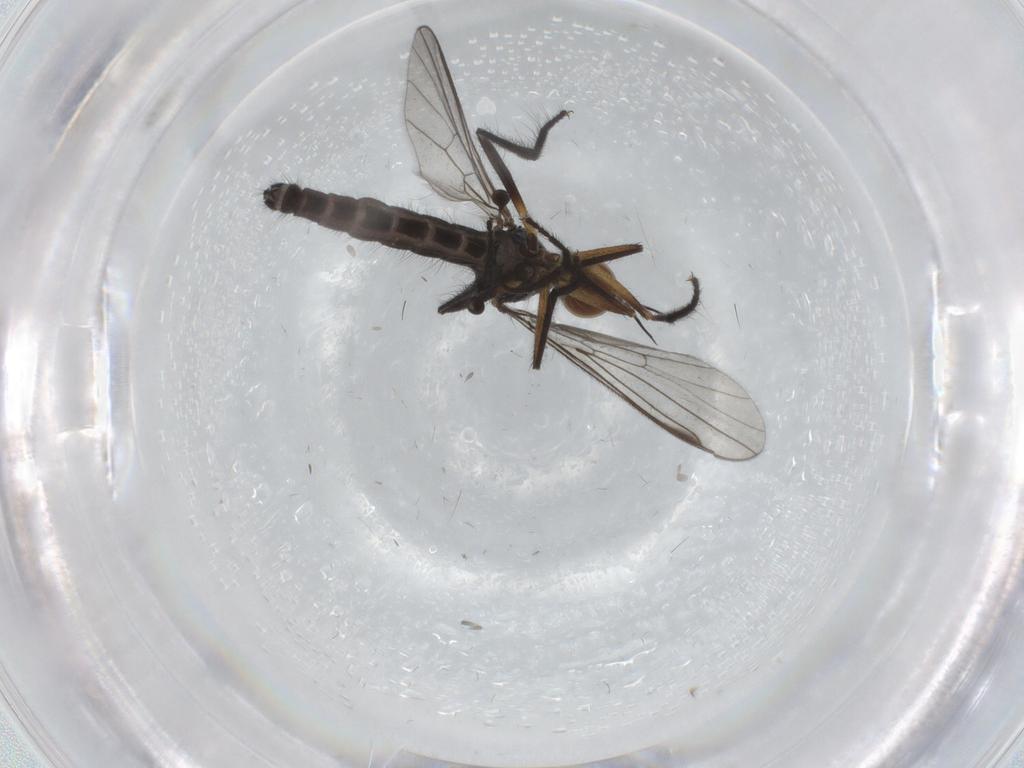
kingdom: Animalia
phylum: Arthropoda
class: Insecta
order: Diptera
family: Empididae
